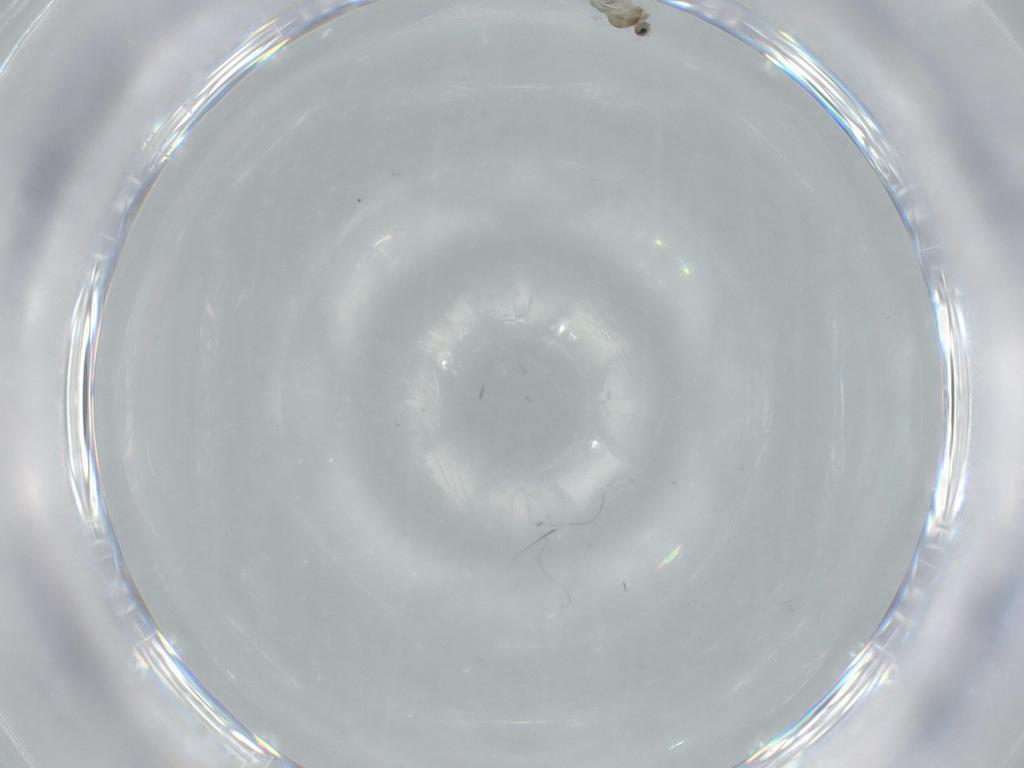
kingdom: Animalia
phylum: Arthropoda
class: Insecta
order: Diptera
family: Cecidomyiidae
